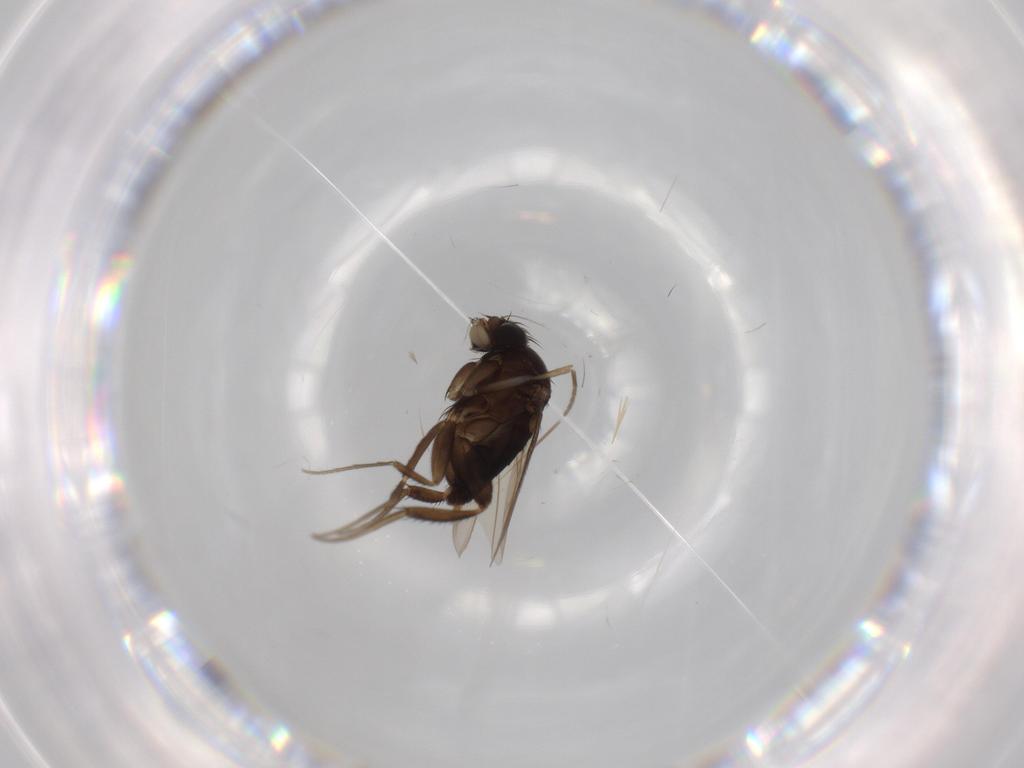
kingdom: Animalia
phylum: Arthropoda
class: Insecta
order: Diptera
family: Phoridae
